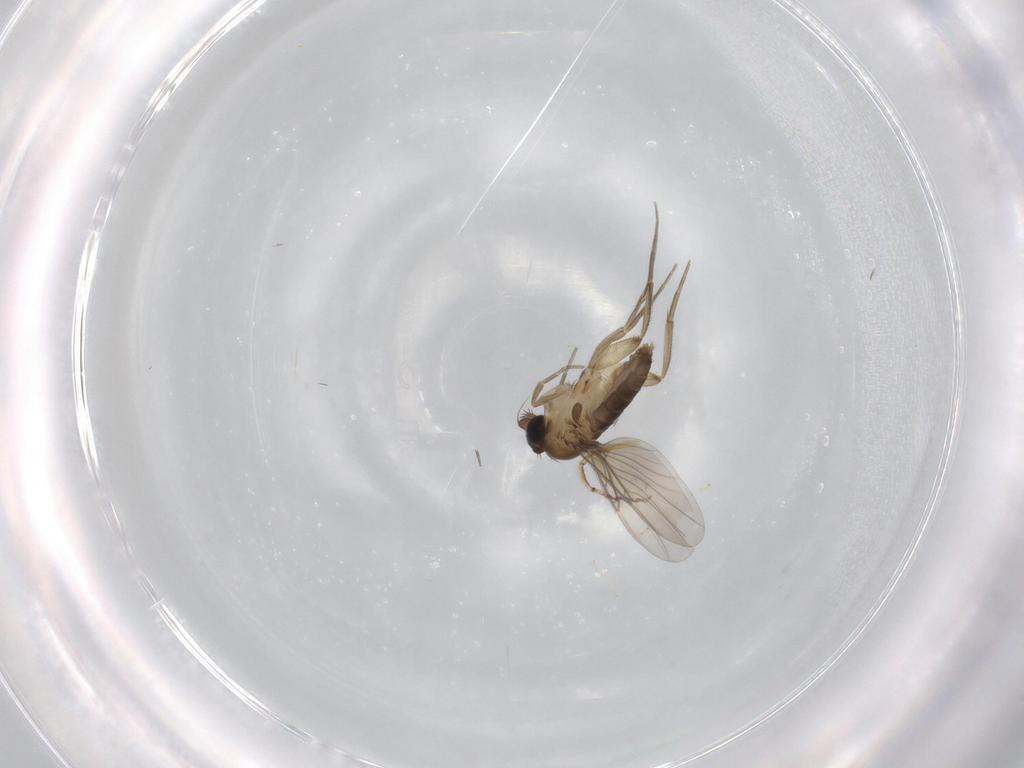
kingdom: Animalia
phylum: Arthropoda
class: Insecta
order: Diptera
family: Phoridae
